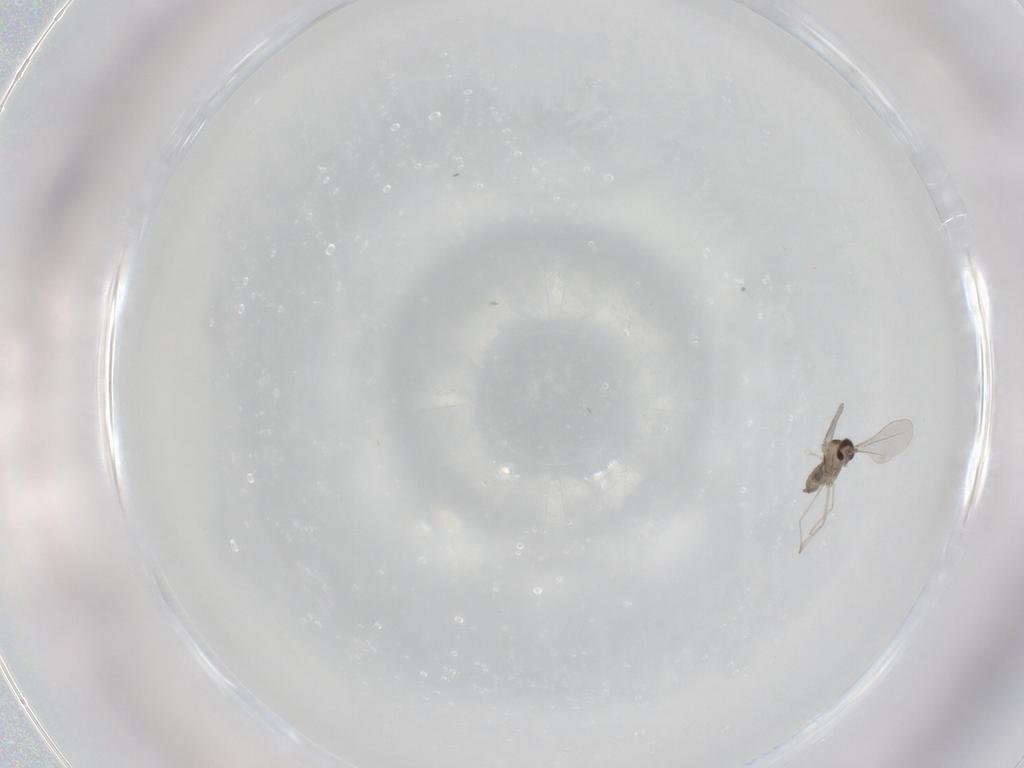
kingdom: Animalia
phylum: Arthropoda
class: Insecta
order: Diptera
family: Cecidomyiidae
